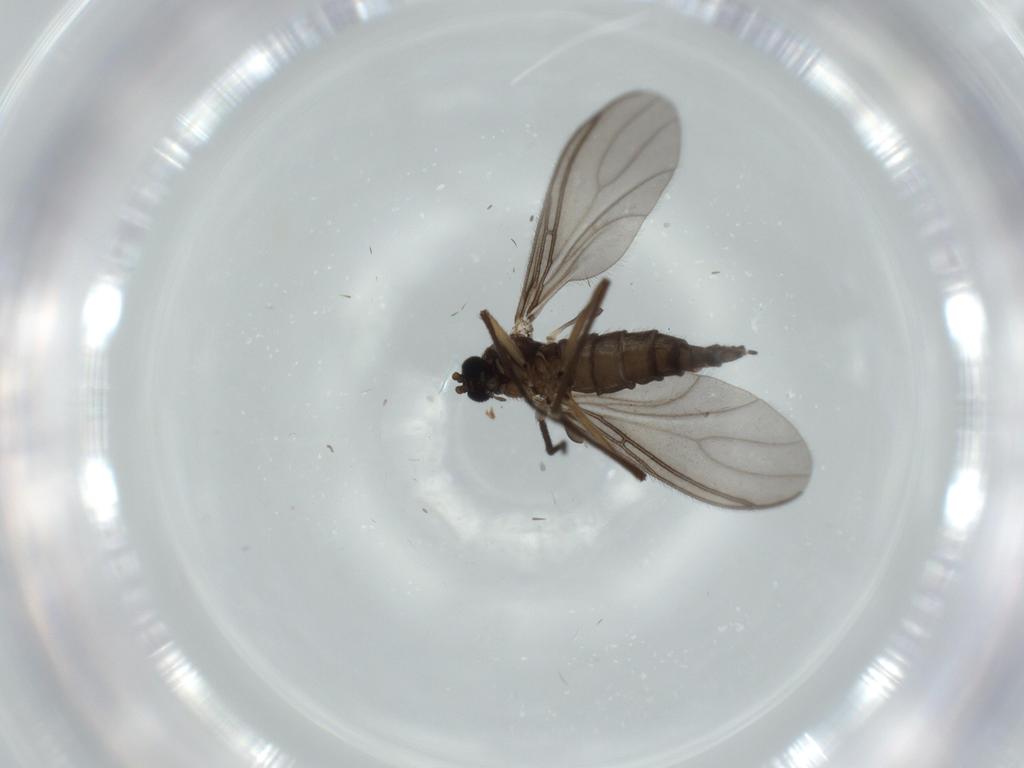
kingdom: Animalia
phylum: Arthropoda
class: Insecta
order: Diptera
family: Sciaridae
